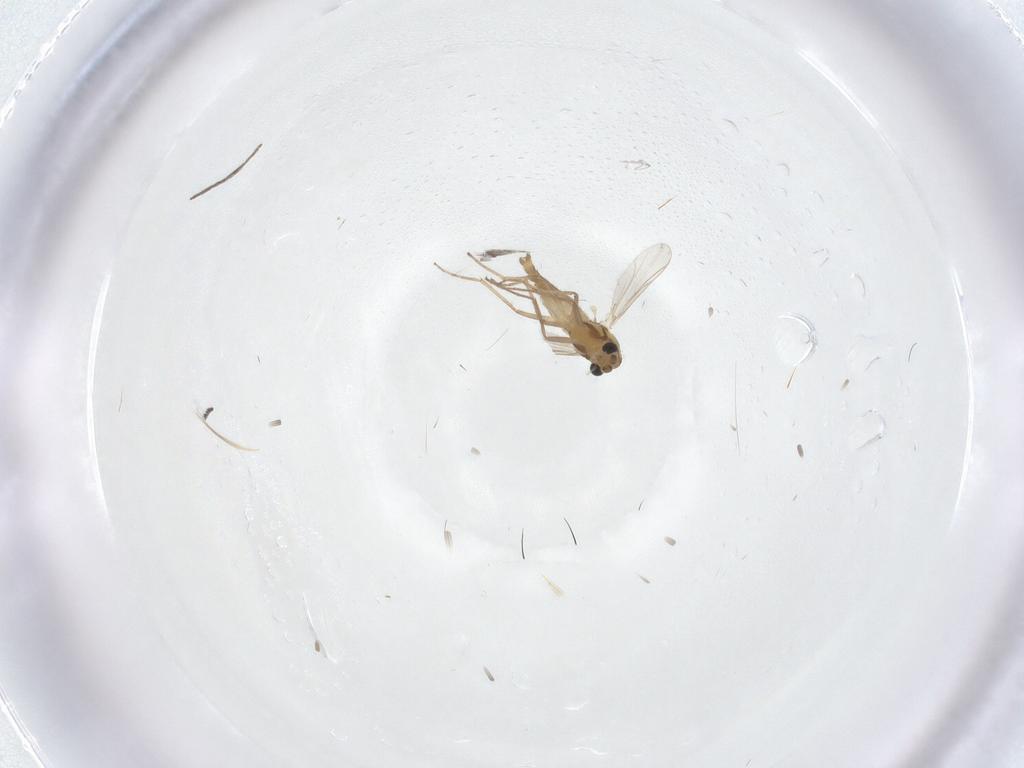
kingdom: Animalia
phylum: Arthropoda
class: Insecta
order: Diptera
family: Chironomidae
